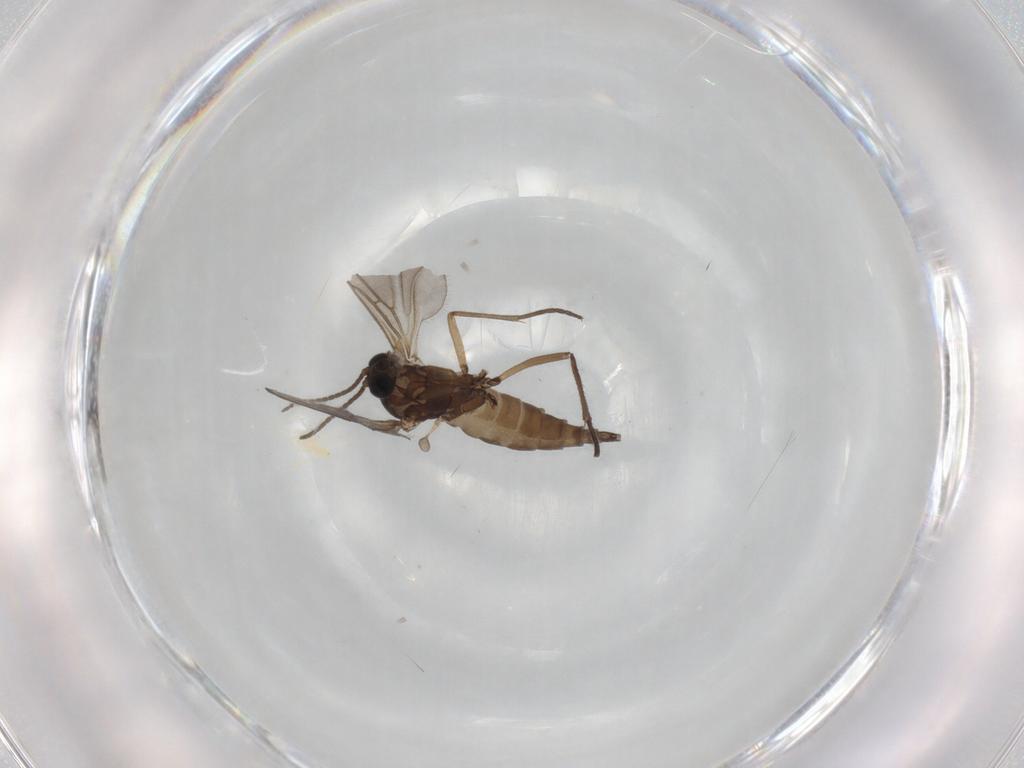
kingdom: Animalia
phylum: Arthropoda
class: Insecta
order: Diptera
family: Sciaridae
